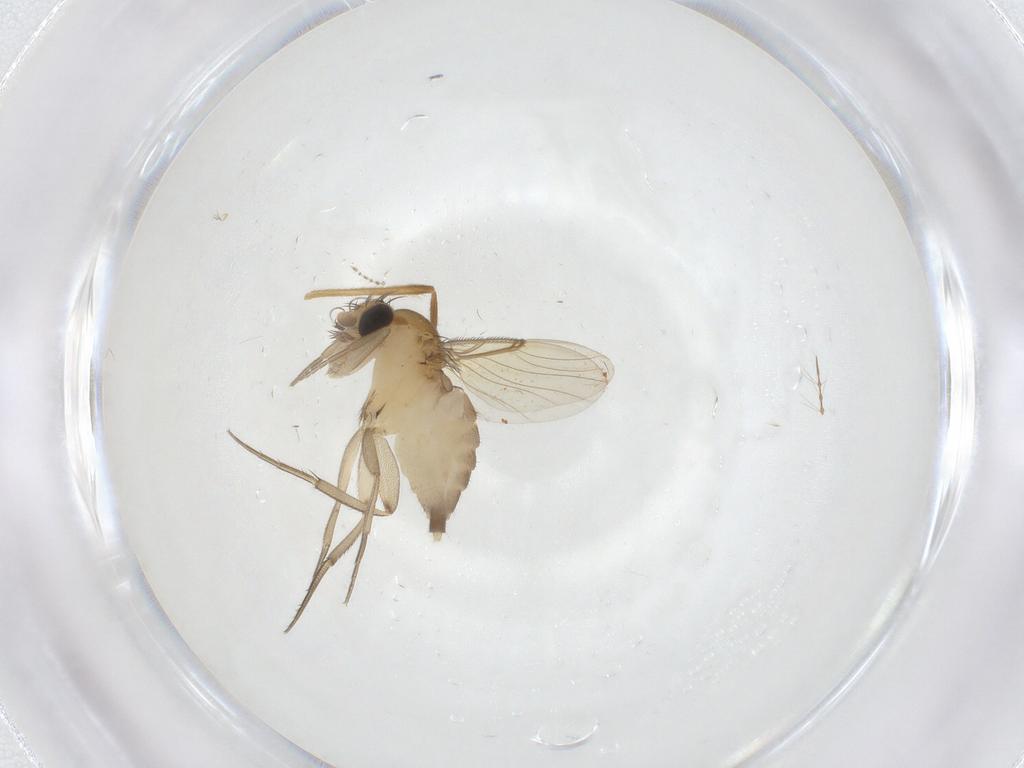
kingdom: Animalia
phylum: Arthropoda
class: Insecta
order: Diptera
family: Phoridae
